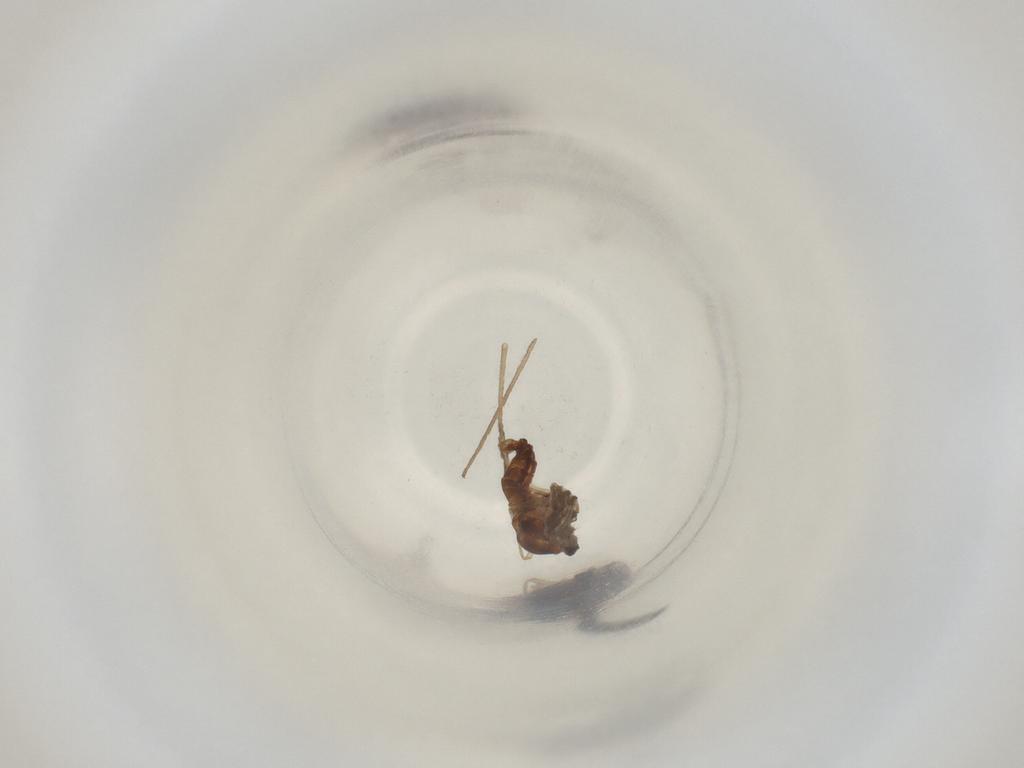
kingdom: Animalia
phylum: Arthropoda
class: Insecta
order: Diptera
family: Cecidomyiidae
